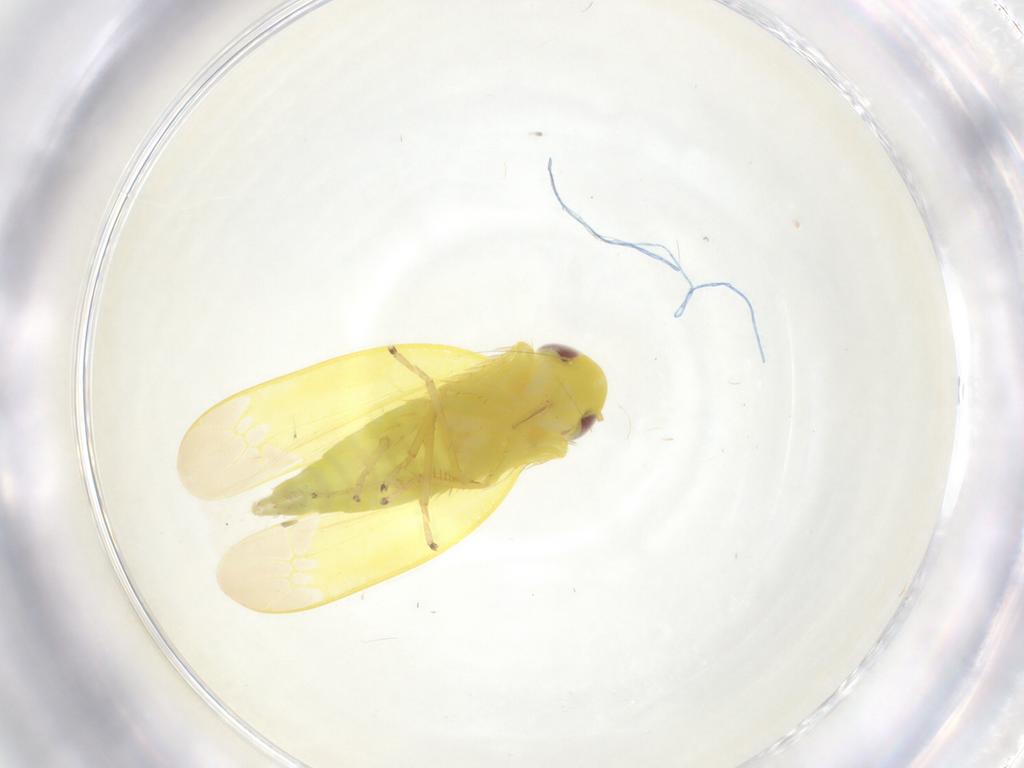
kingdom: Animalia
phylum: Arthropoda
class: Insecta
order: Hemiptera
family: Cicadellidae
